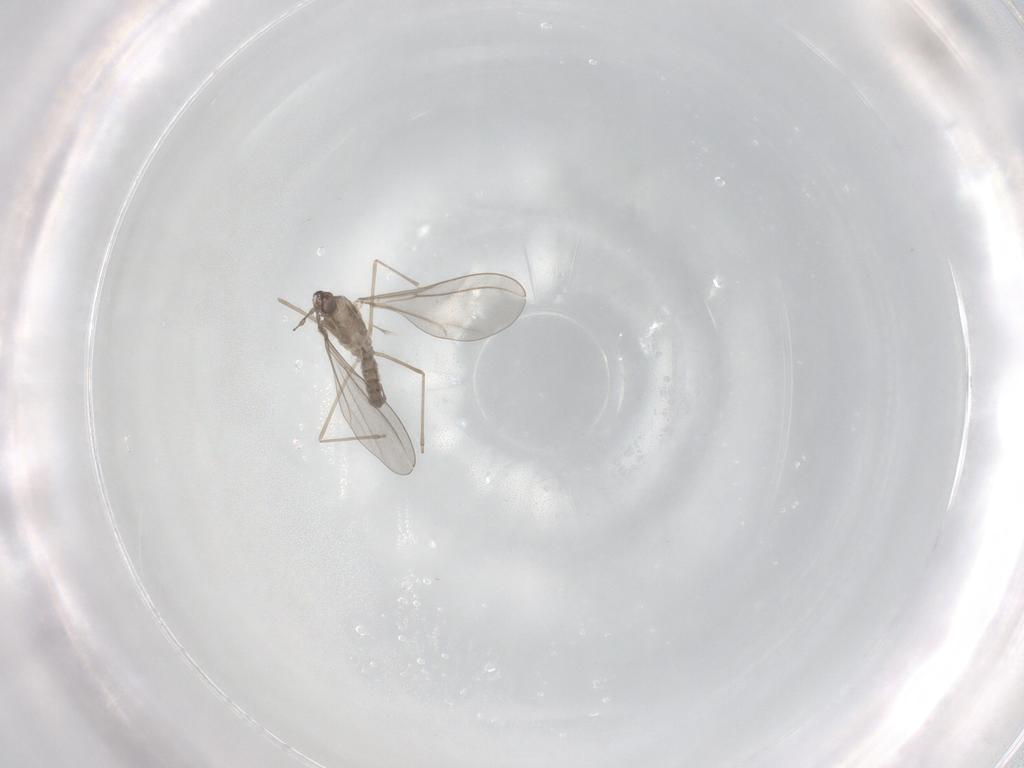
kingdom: Animalia
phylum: Arthropoda
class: Insecta
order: Diptera
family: Cecidomyiidae
